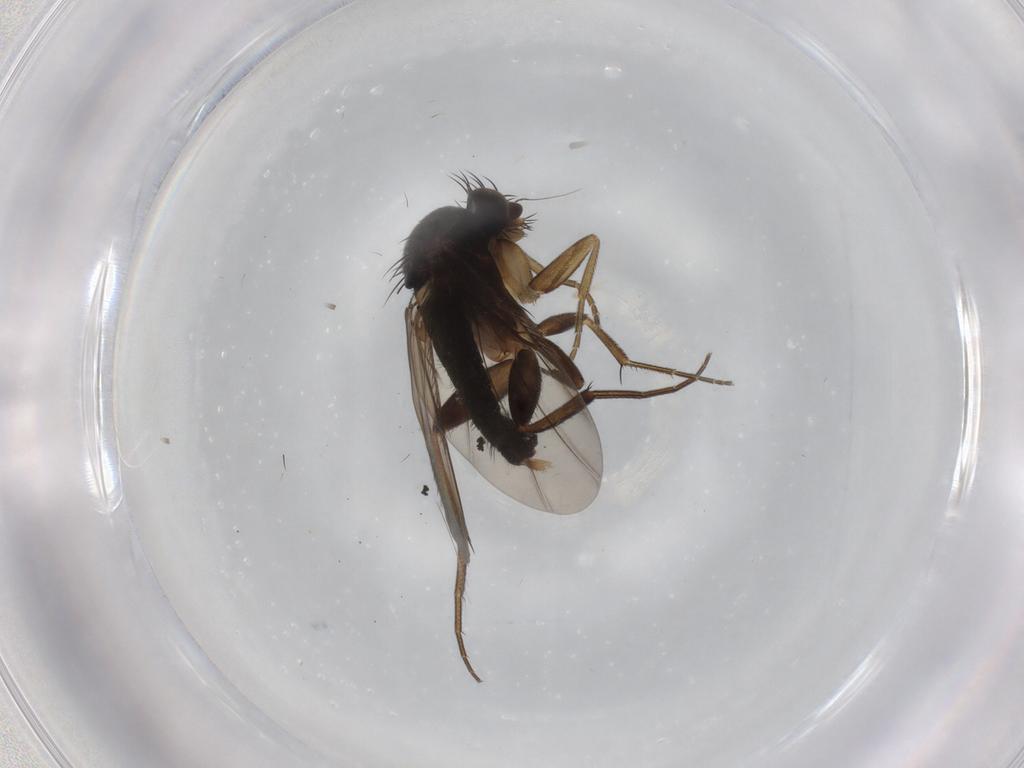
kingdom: Animalia
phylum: Arthropoda
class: Insecta
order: Diptera
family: Phoridae
